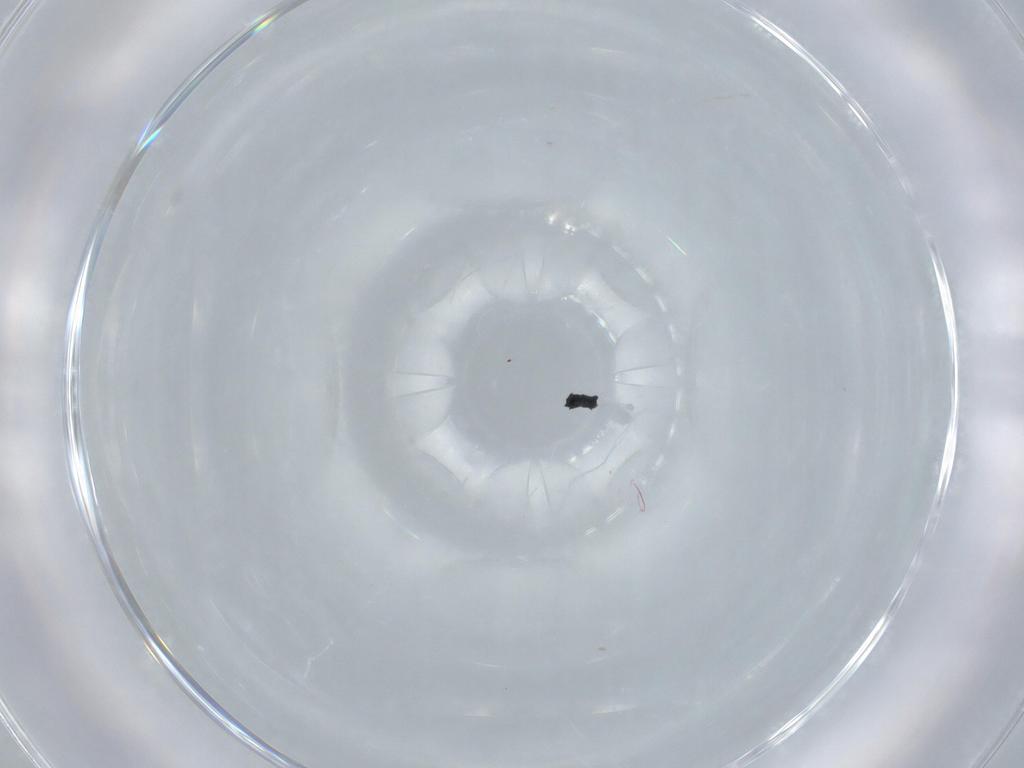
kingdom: Animalia
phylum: Arthropoda
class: Insecta
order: Diptera
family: Milichiidae
